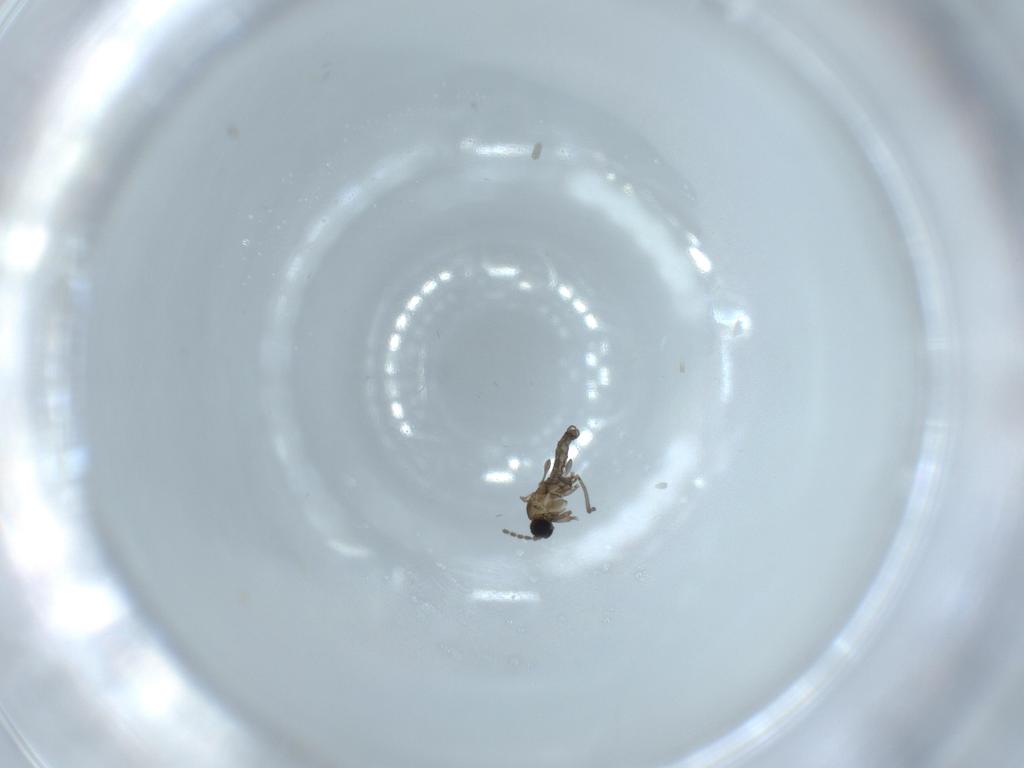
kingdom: Animalia
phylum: Arthropoda
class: Insecta
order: Diptera
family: Sciaridae
